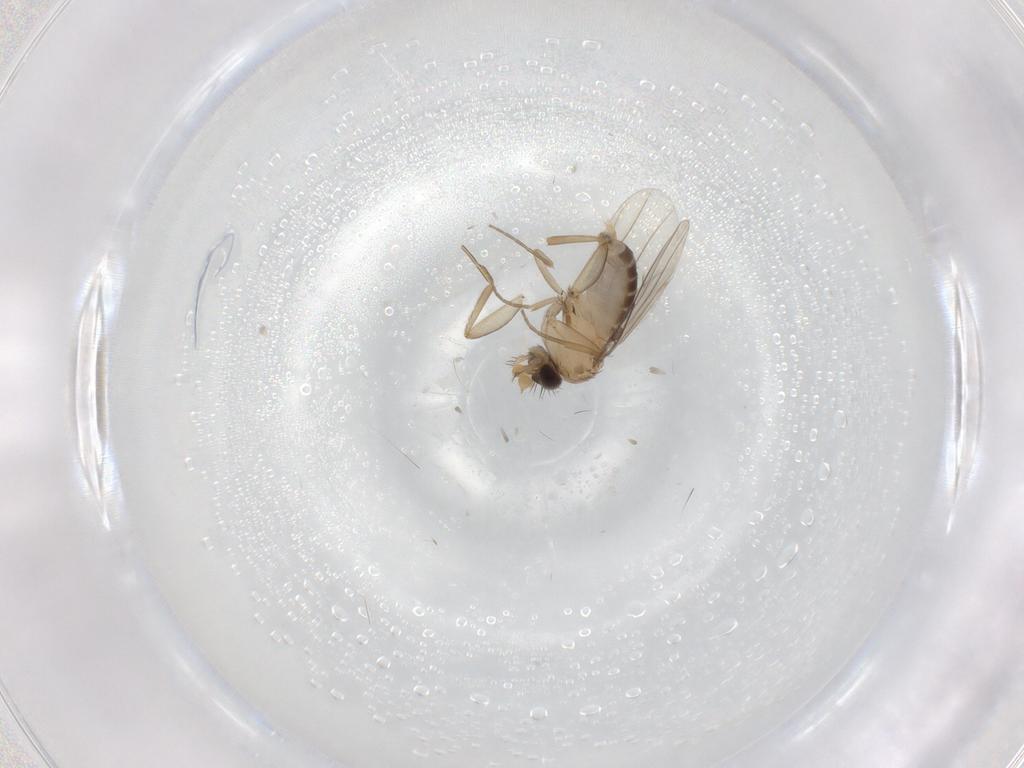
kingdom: Animalia
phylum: Arthropoda
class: Insecta
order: Diptera
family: Phoridae
